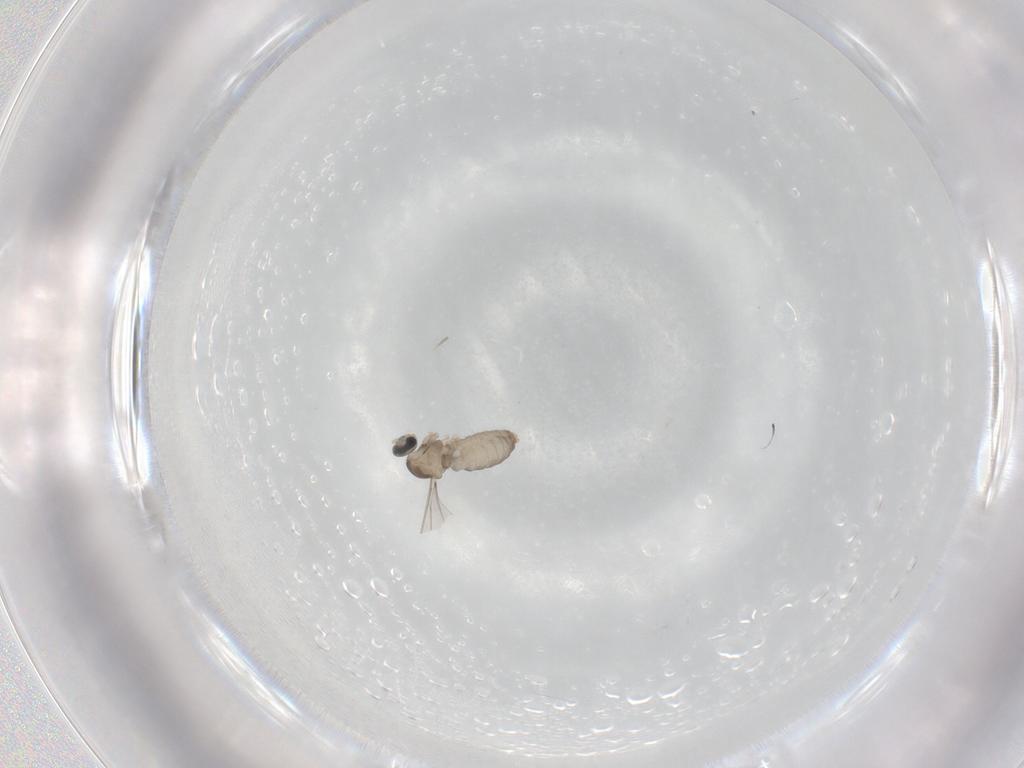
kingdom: Animalia
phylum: Arthropoda
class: Insecta
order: Diptera
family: Cecidomyiidae
